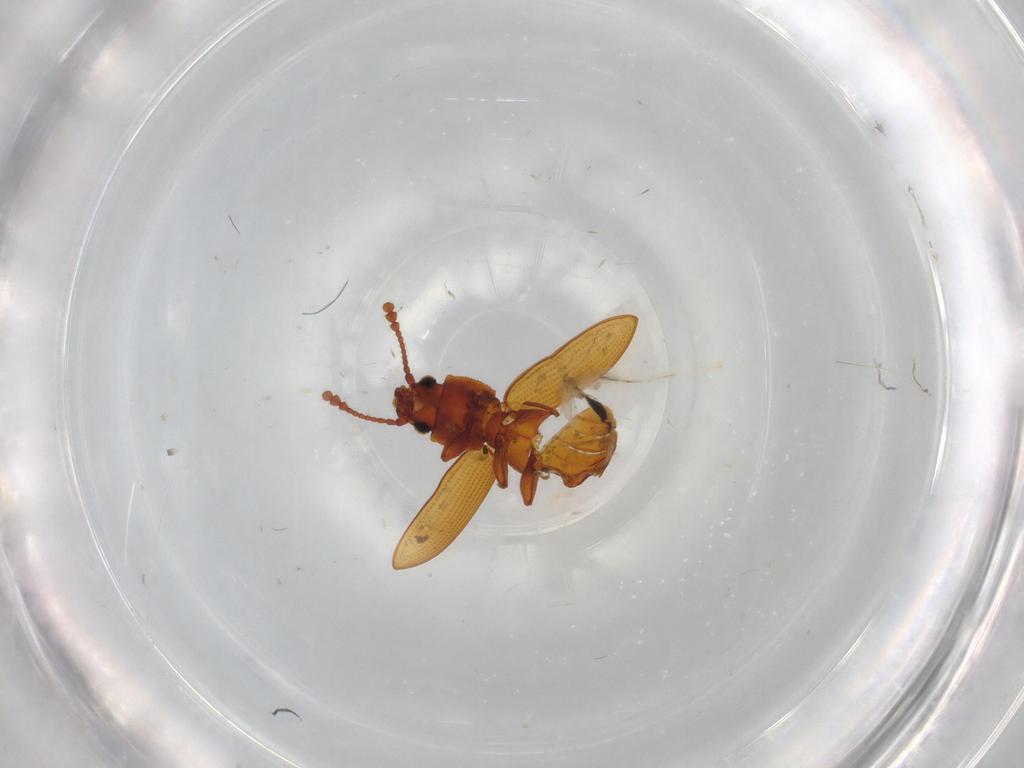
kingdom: Animalia
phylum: Arthropoda
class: Insecta
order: Coleoptera
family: Silvanidae
